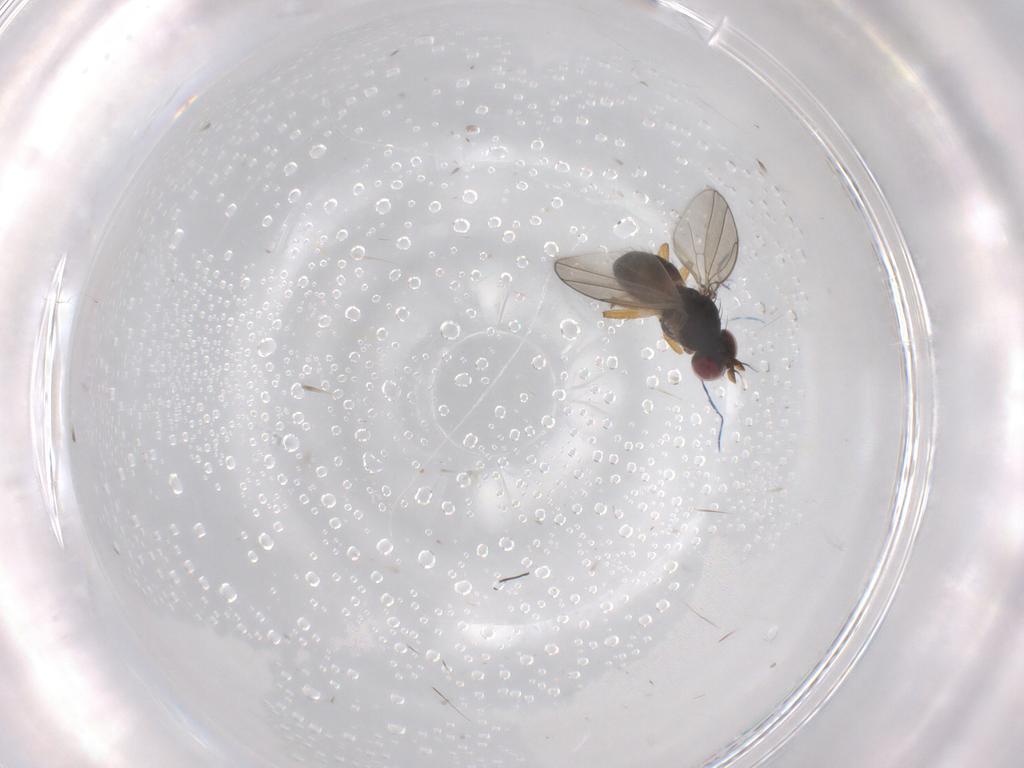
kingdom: Animalia
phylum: Arthropoda
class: Insecta
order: Diptera
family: Ephydridae
